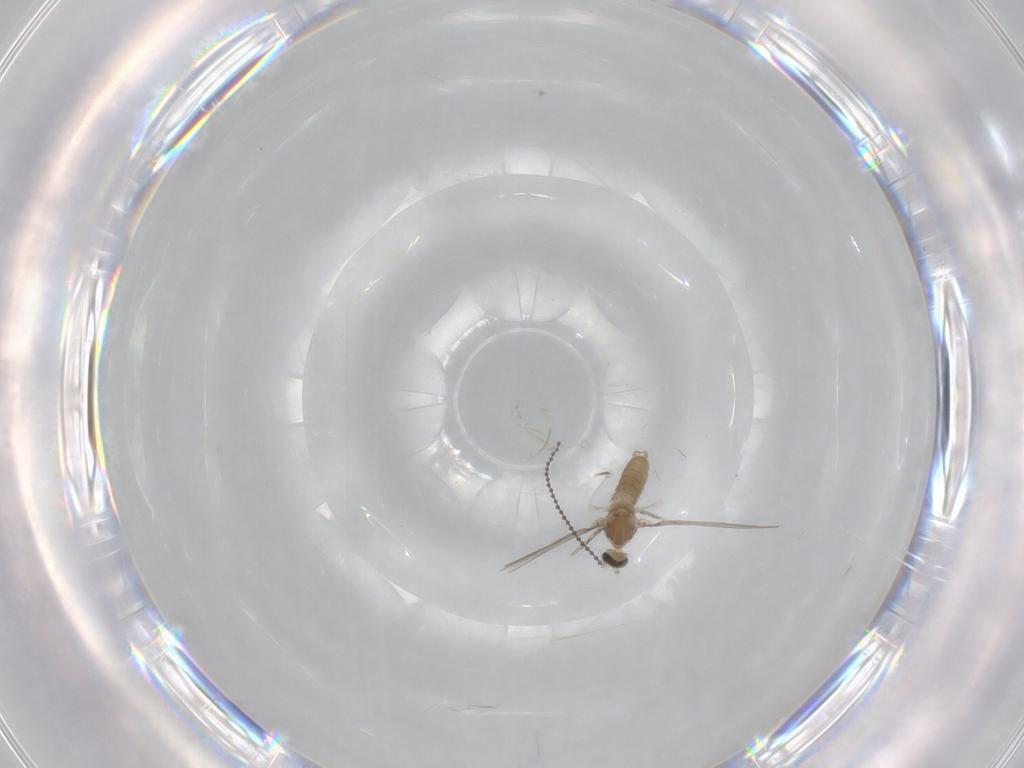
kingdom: Animalia
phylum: Arthropoda
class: Insecta
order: Diptera
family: Cecidomyiidae
